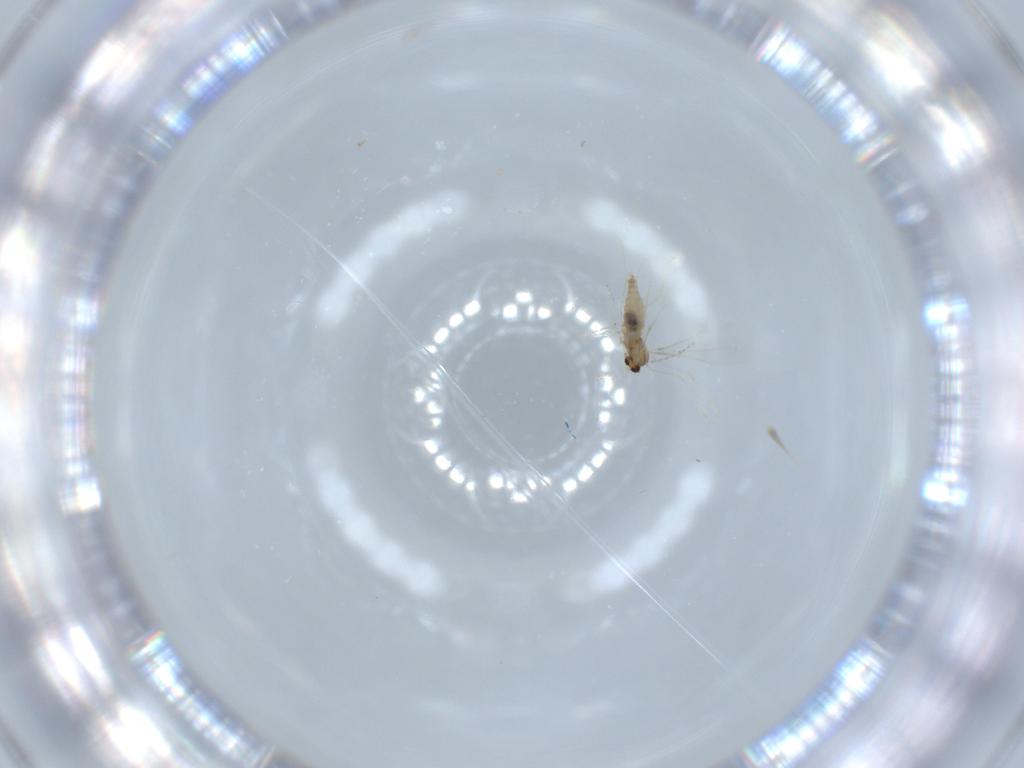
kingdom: Animalia
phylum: Arthropoda
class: Insecta
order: Diptera
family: Cecidomyiidae
